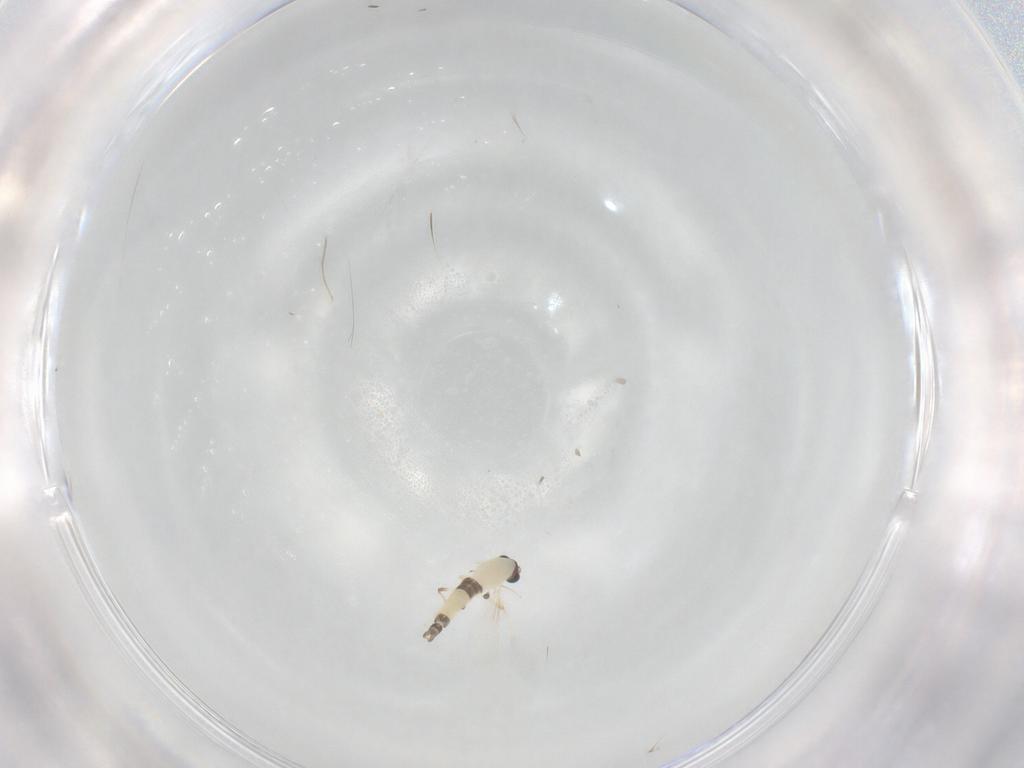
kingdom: Animalia
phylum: Arthropoda
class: Insecta
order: Diptera
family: Chironomidae
